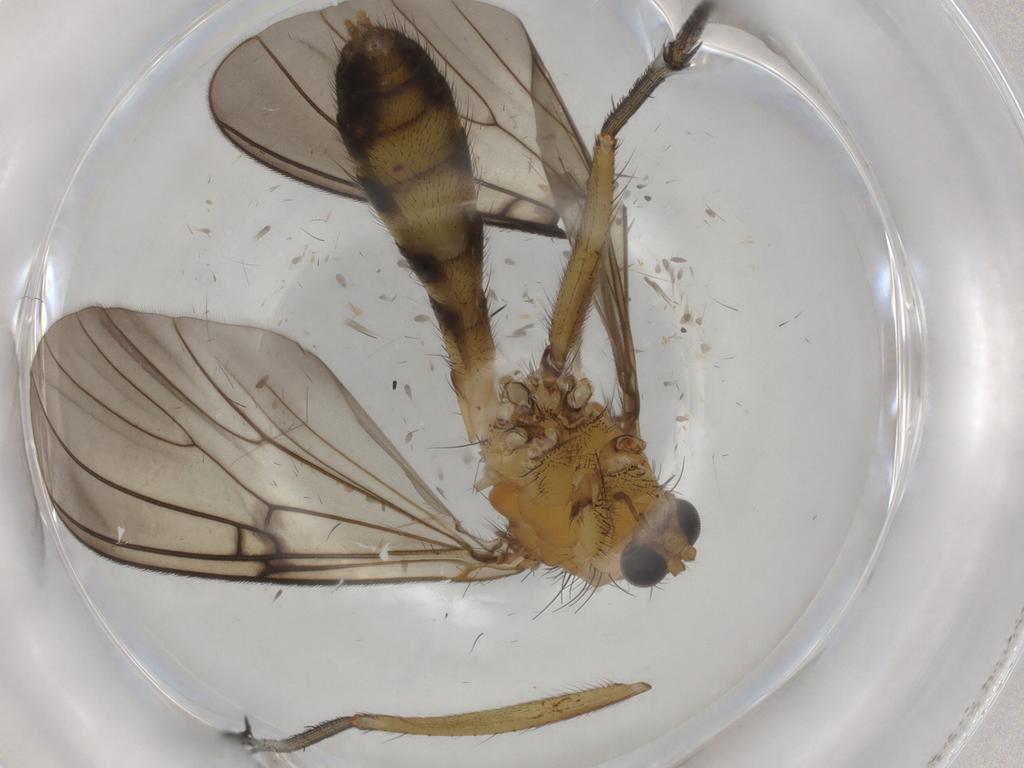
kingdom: Animalia
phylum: Arthropoda
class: Insecta
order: Diptera
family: Mycetophilidae
